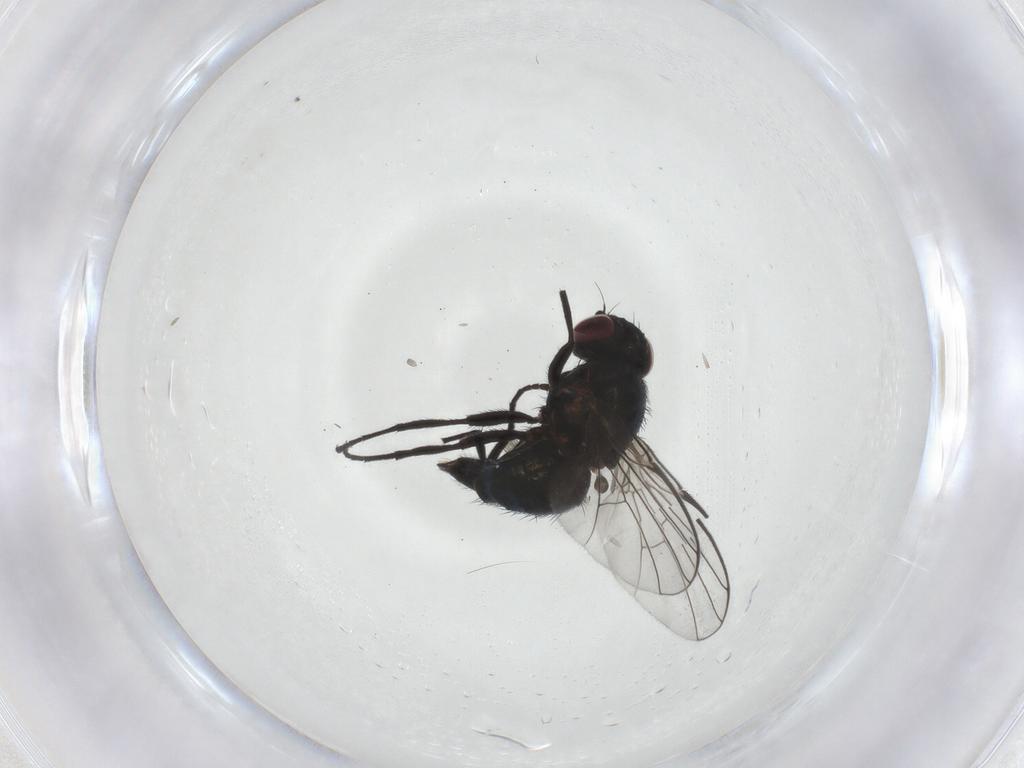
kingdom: Animalia
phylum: Arthropoda
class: Insecta
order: Diptera
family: Agromyzidae
